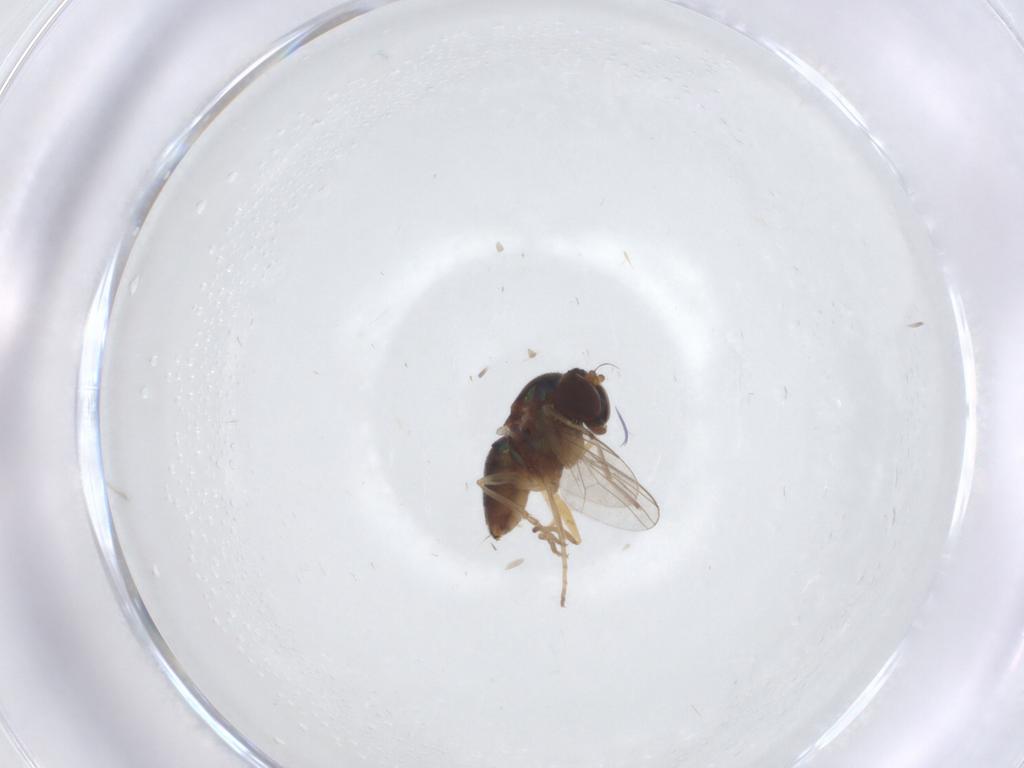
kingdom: Animalia
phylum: Arthropoda
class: Insecta
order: Diptera
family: Dolichopodidae
